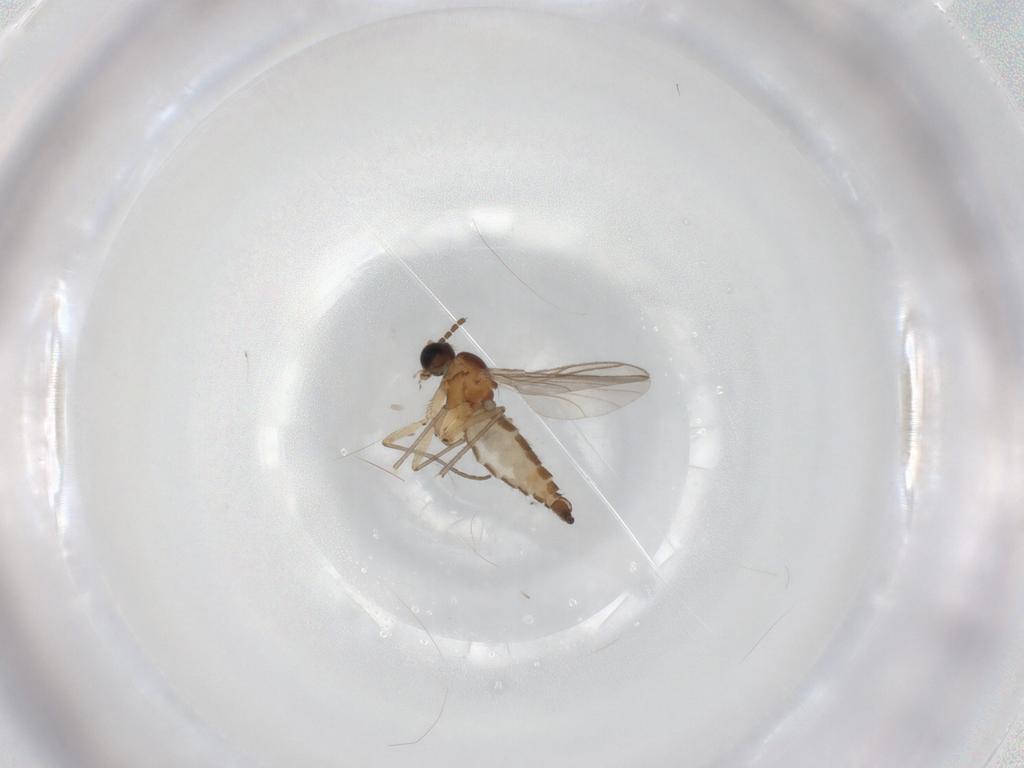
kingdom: Animalia
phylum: Arthropoda
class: Insecta
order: Diptera
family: Sciaridae
